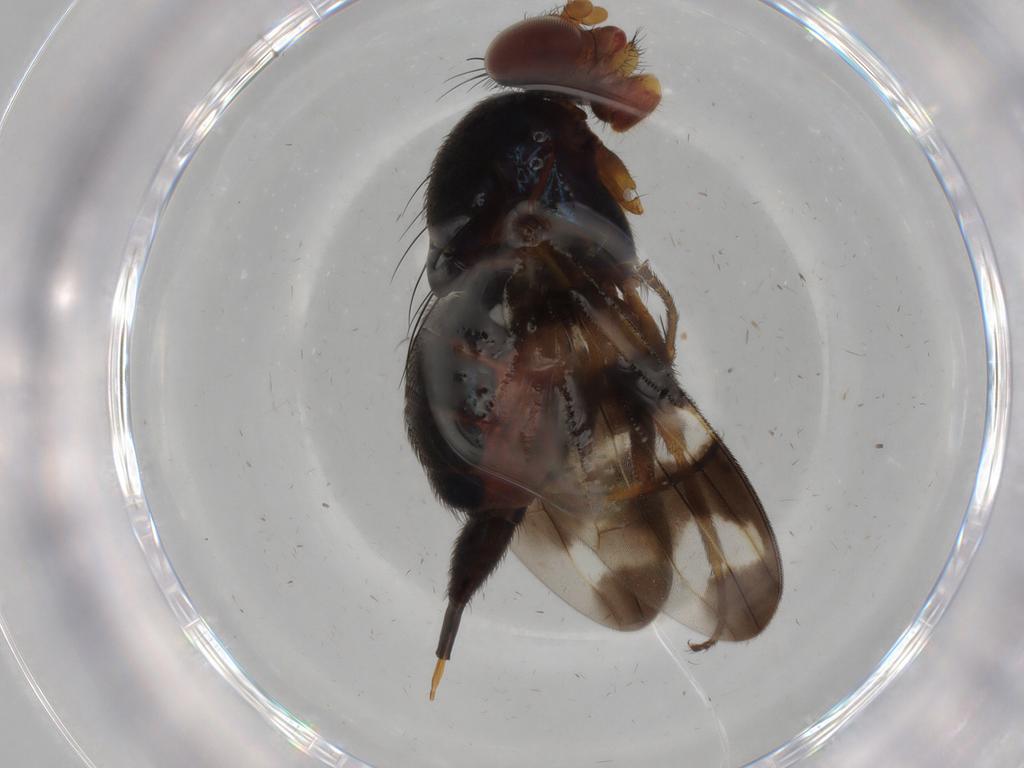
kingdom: Animalia
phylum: Arthropoda
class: Insecta
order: Diptera
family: Ulidiidae
